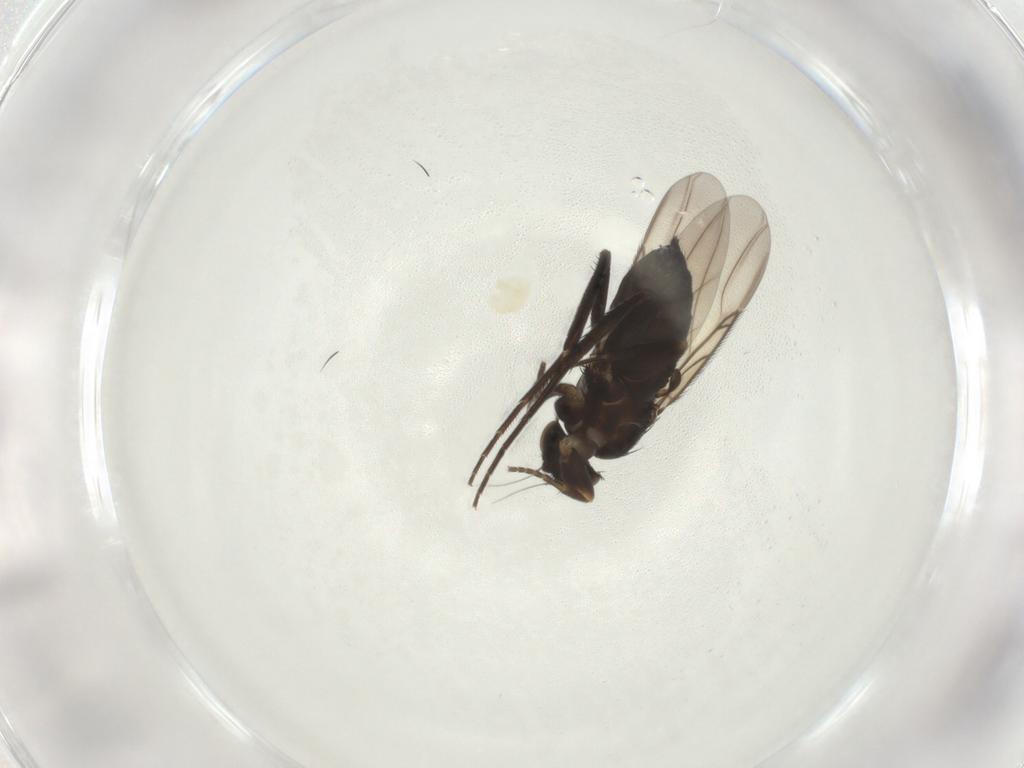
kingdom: Animalia
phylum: Arthropoda
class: Insecta
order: Diptera
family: Phoridae
